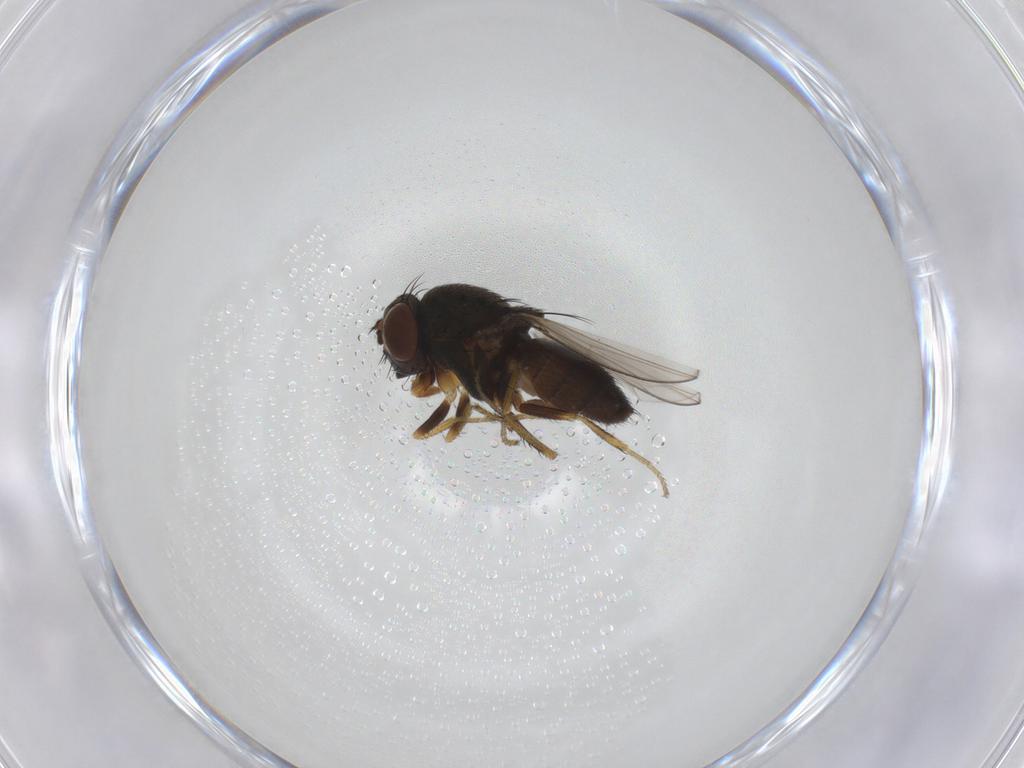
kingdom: Animalia
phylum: Arthropoda
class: Insecta
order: Diptera
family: Ephydridae
